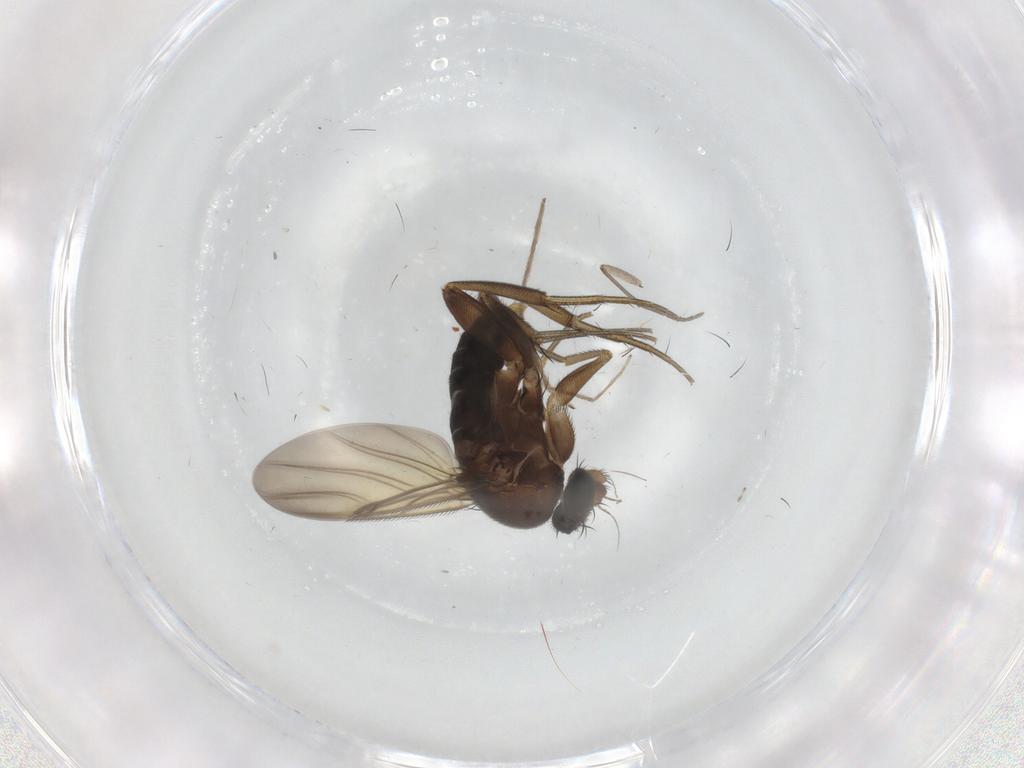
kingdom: Animalia
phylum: Arthropoda
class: Insecta
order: Diptera
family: Phoridae
